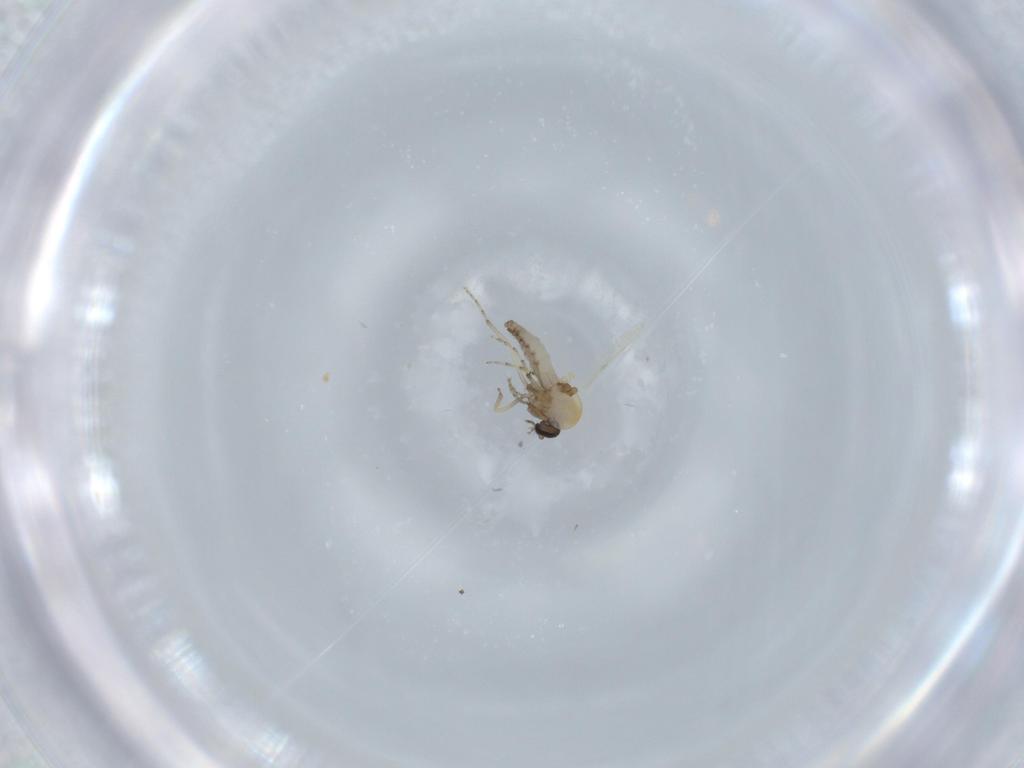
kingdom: Animalia
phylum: Arthropoda
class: Insecta
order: Diptera
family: Ceratopogonidae
